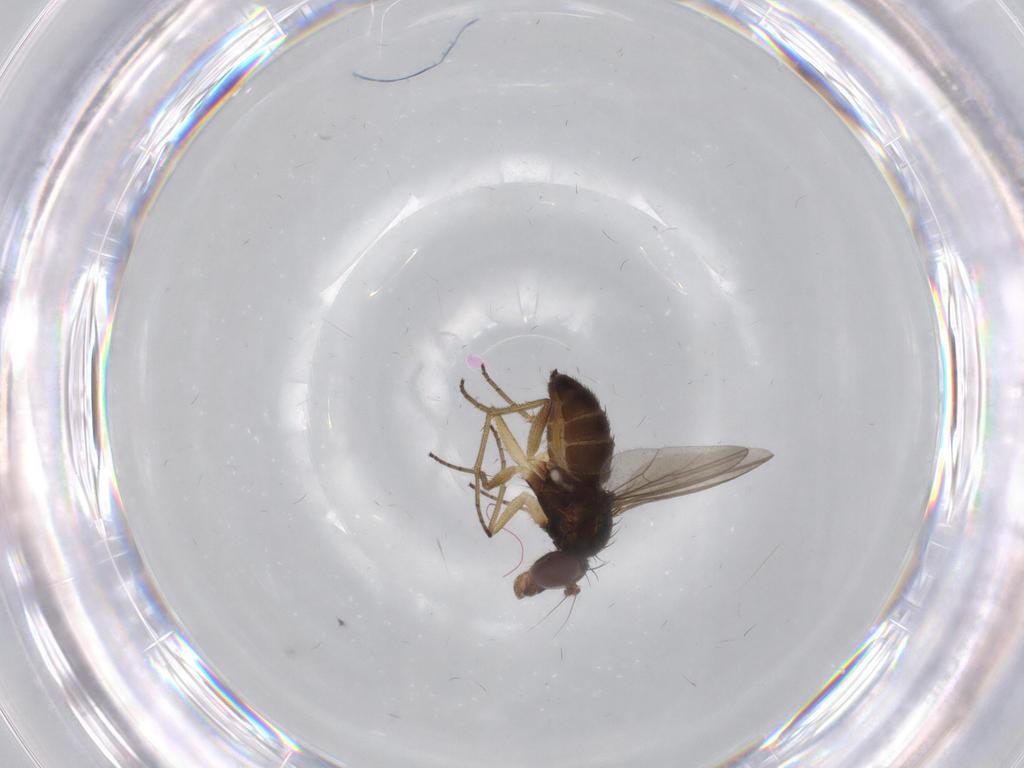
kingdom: Animalia
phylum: Arthropoda
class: Insecta
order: Diptera
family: Dolichopodidae
